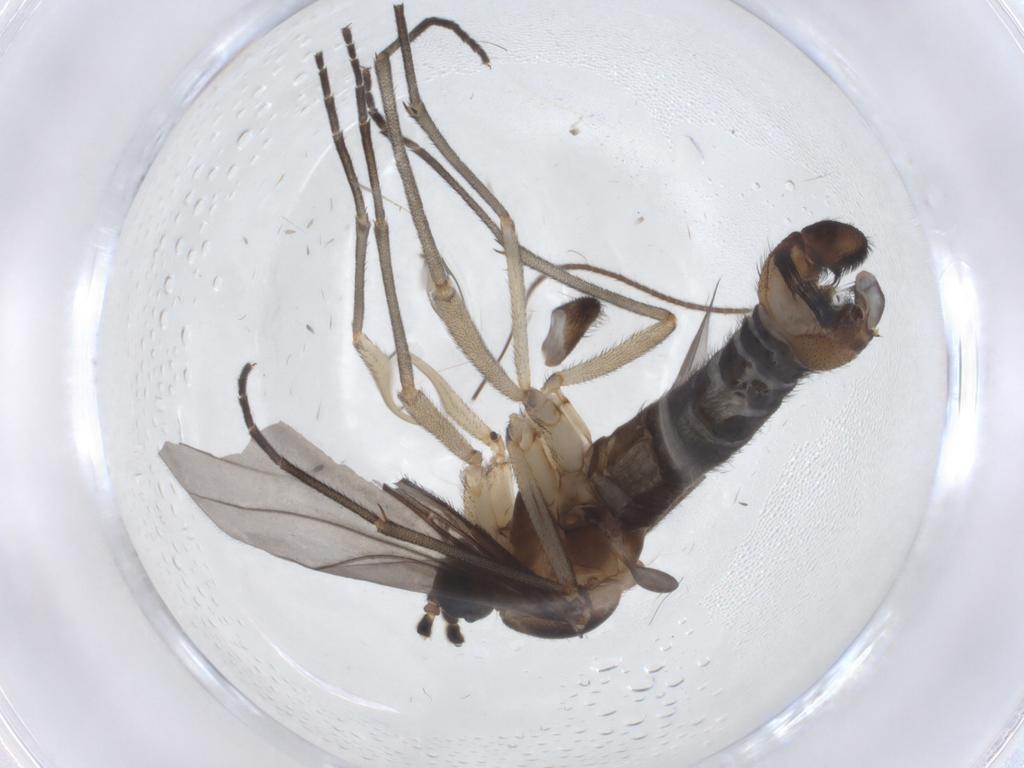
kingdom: Animalia
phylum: Arthropoda
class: Insecta
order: Diptera
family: Sciaridae
